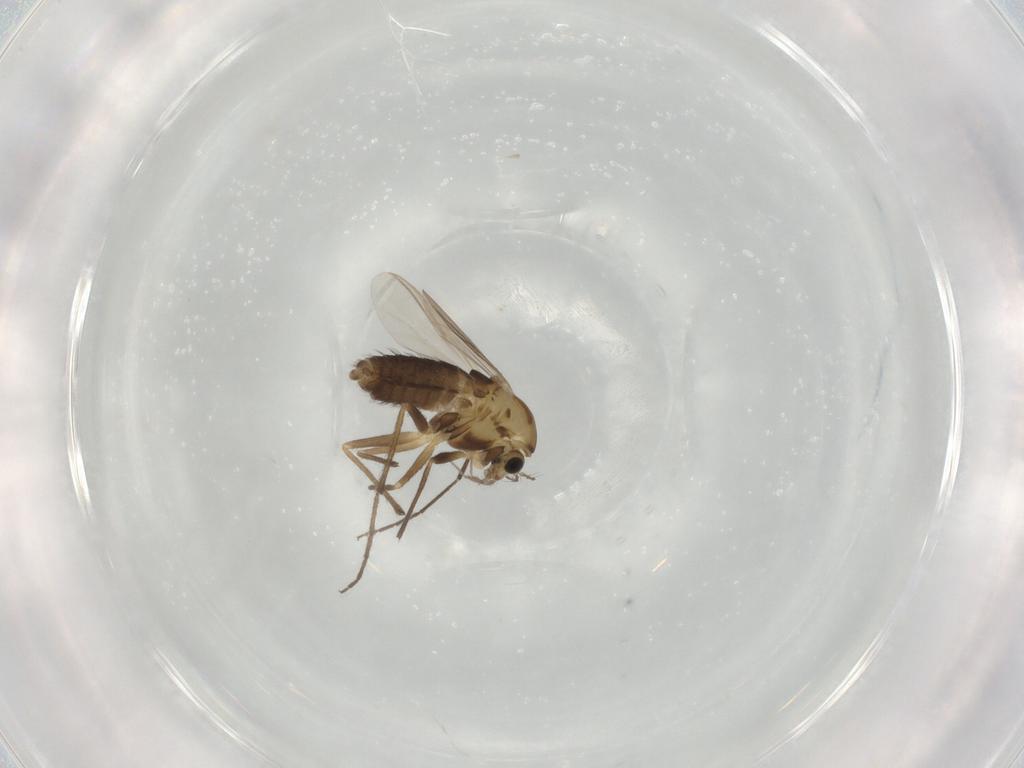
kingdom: Animalia
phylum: Arthropoda
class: Insecta
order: Diptera
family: Chironomidae
